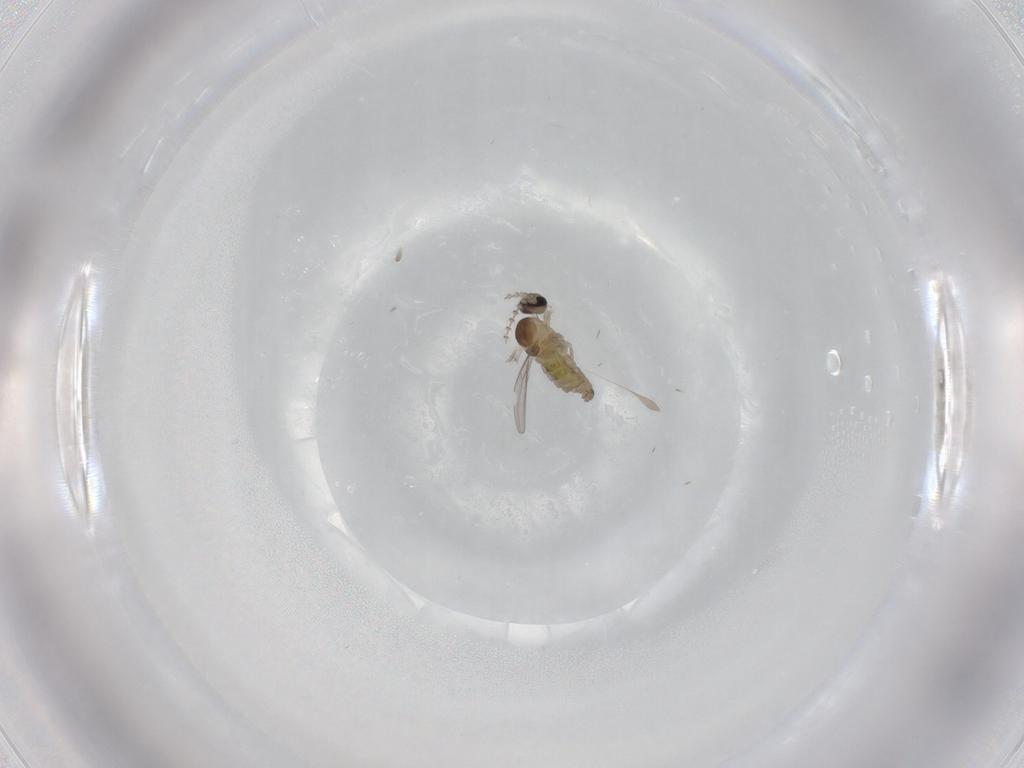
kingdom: Animalia
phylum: Arthropoda
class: Insecta
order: Diptera
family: Cecidomyiidae
